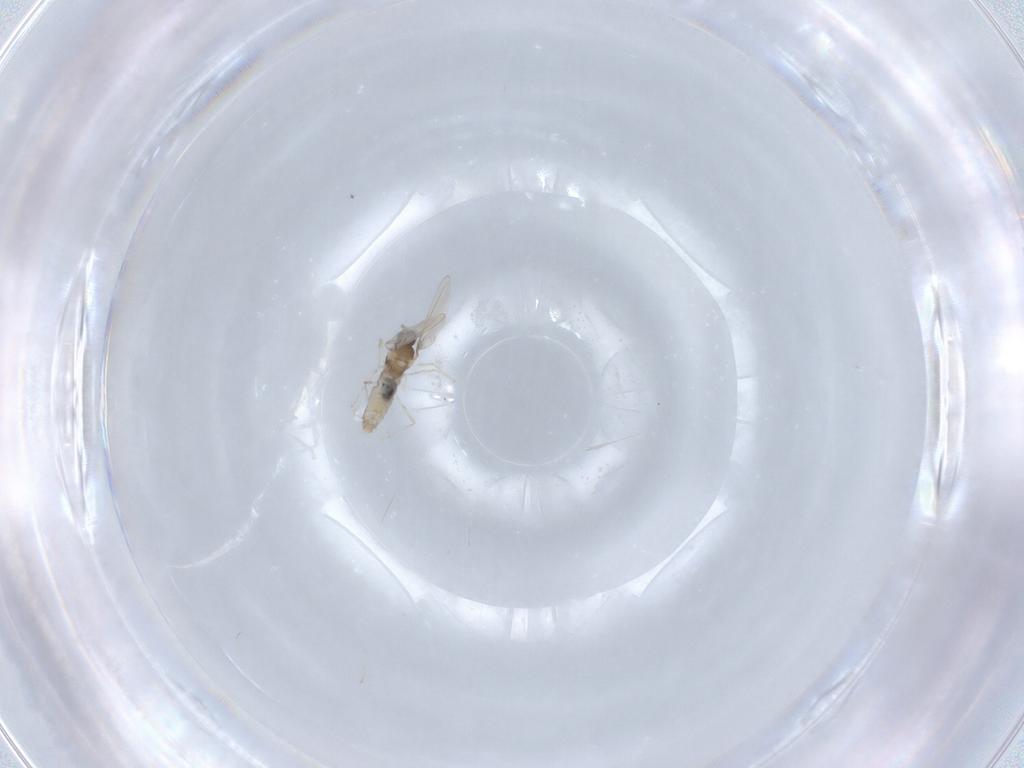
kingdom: Animalia
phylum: Arthropoda
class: Insecta
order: Diptera
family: Cecidomyiidae
